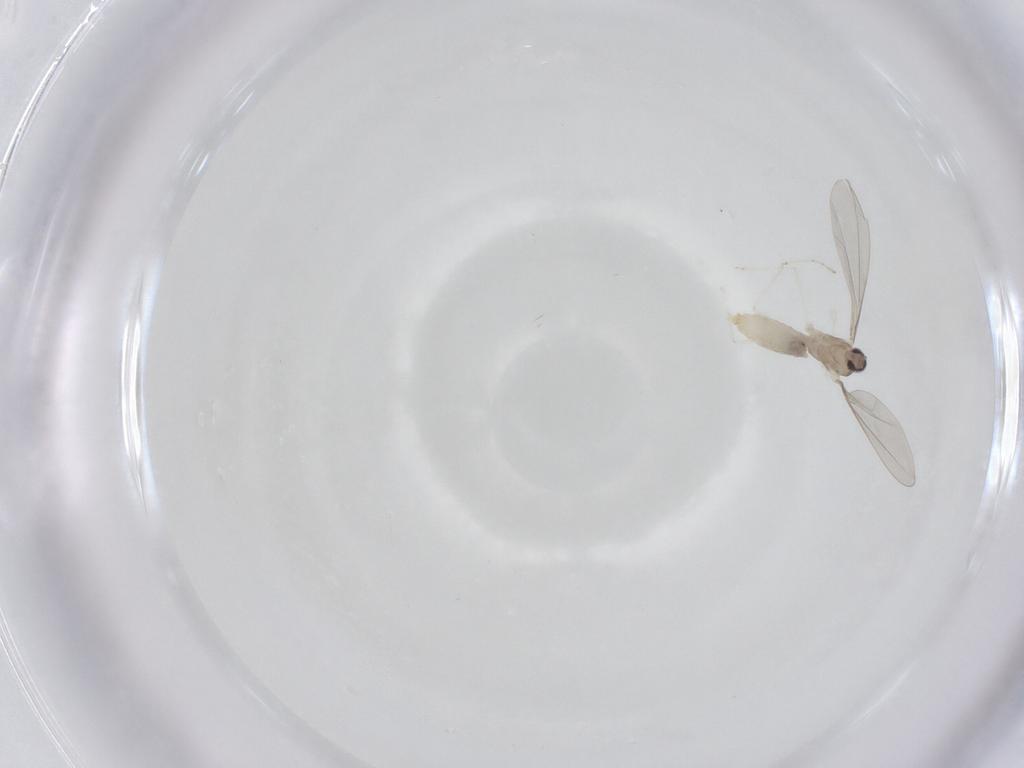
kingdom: Animalia
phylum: Arthropoda
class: Insecta
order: Diptera
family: Cecidomyiidae
